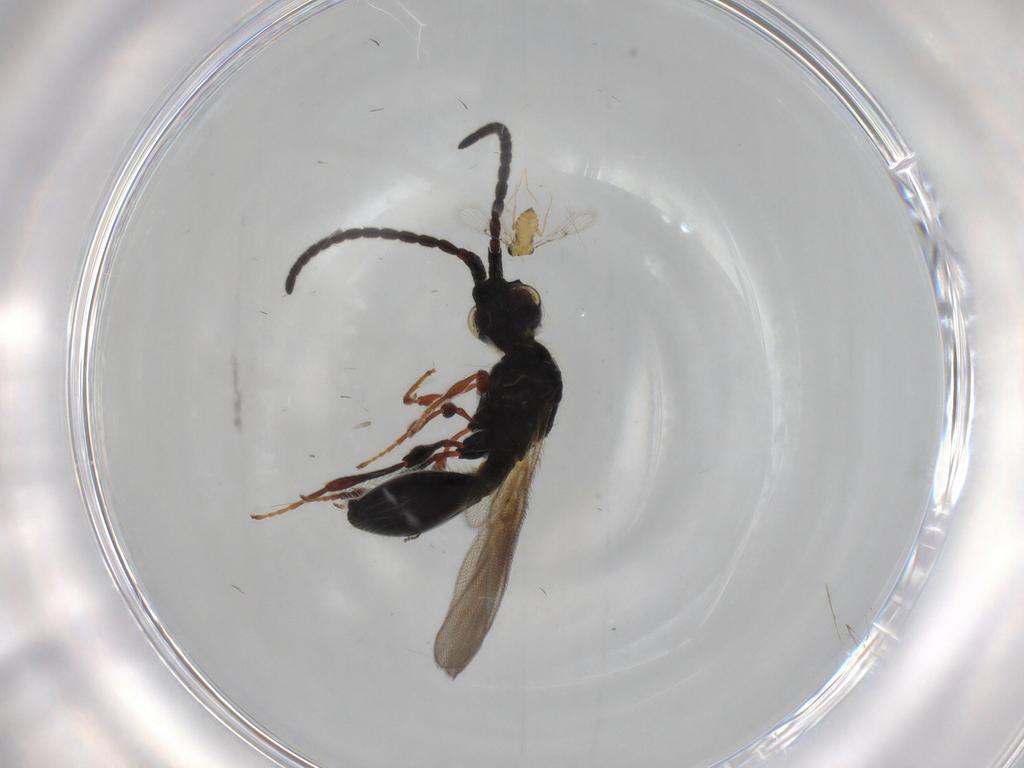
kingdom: Animalia
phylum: Arthropoda
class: Insecta
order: Hymenoptera
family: Trichogrammatidae
